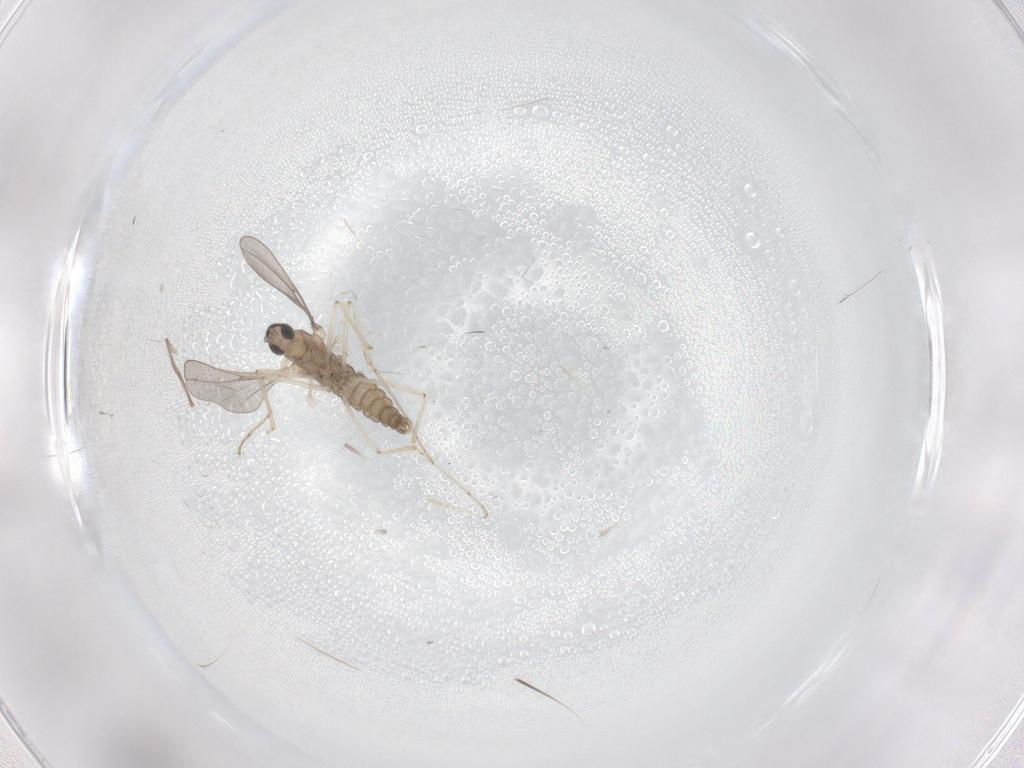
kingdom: Animalia
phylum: Arthropoda
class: Insecta
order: Diptera
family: Cecidomyiidae
